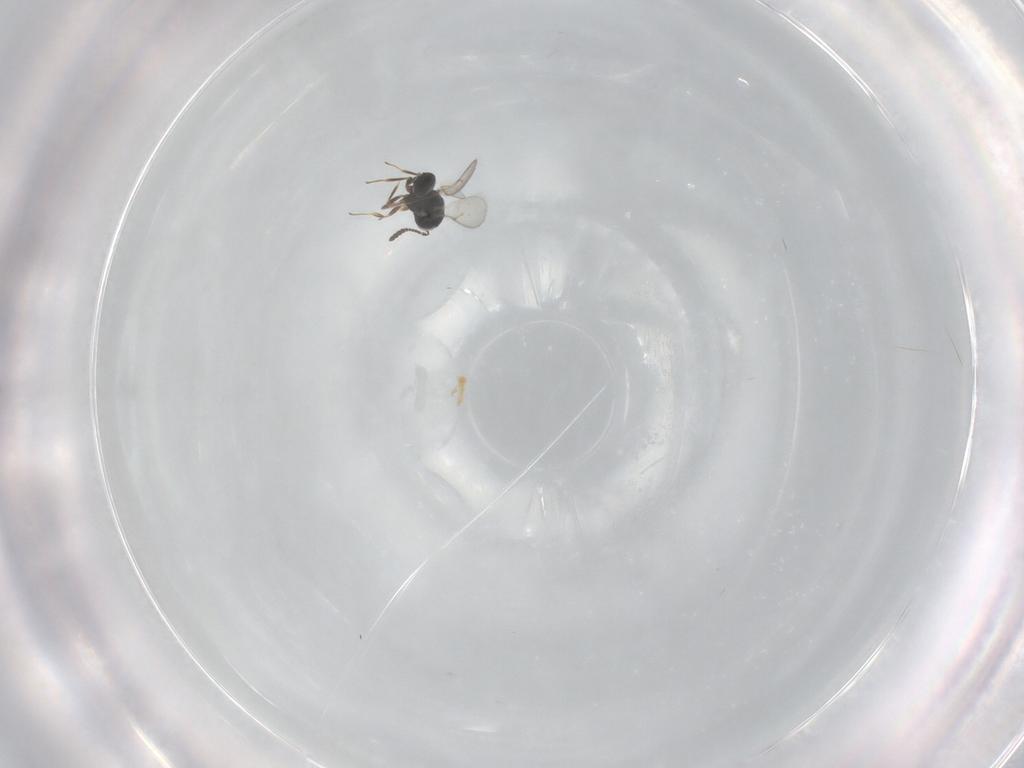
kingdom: Animalia
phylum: Arthropoda
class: Insecta
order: Hymenoptera
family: Scelionidae
